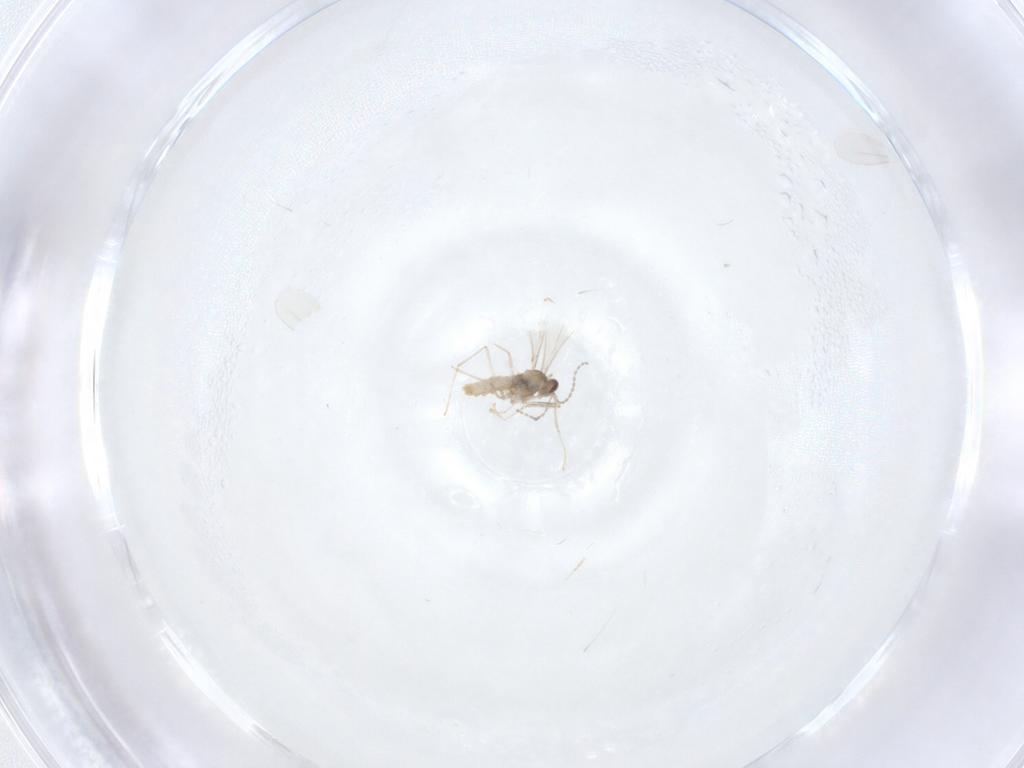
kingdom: Animalia
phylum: Arthropoda
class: Insecta
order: Diptera
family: Cecidomyiidae
